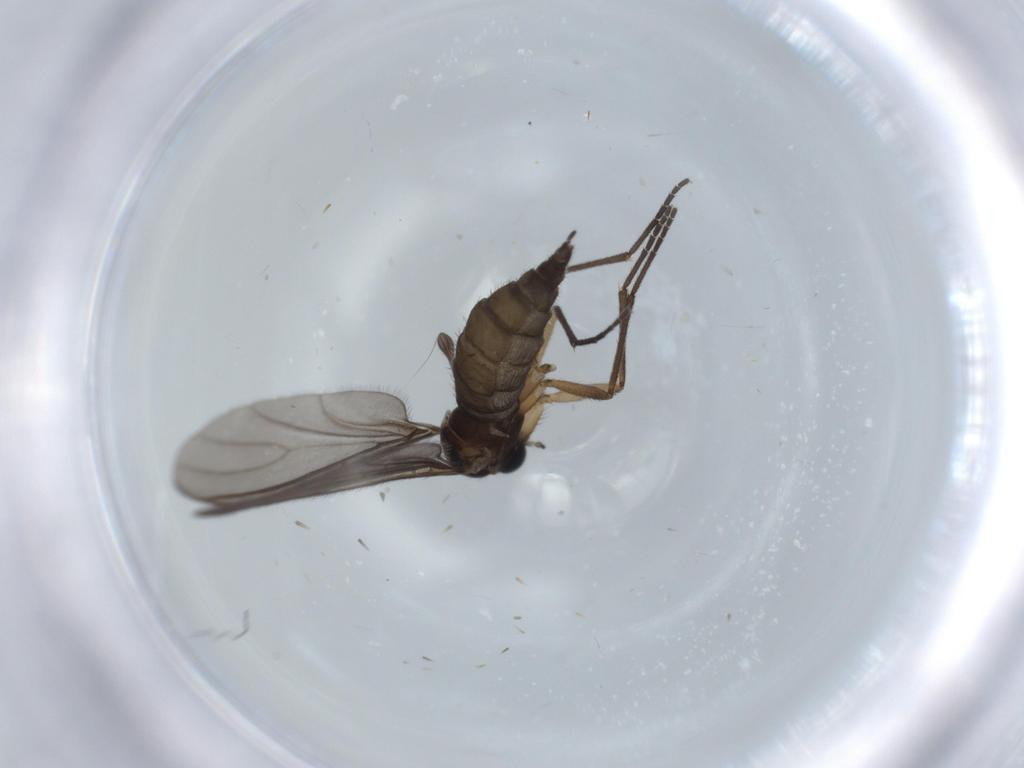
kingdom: Animalia
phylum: Arthropoda
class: Insecta
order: Diptera
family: Sciaridae
